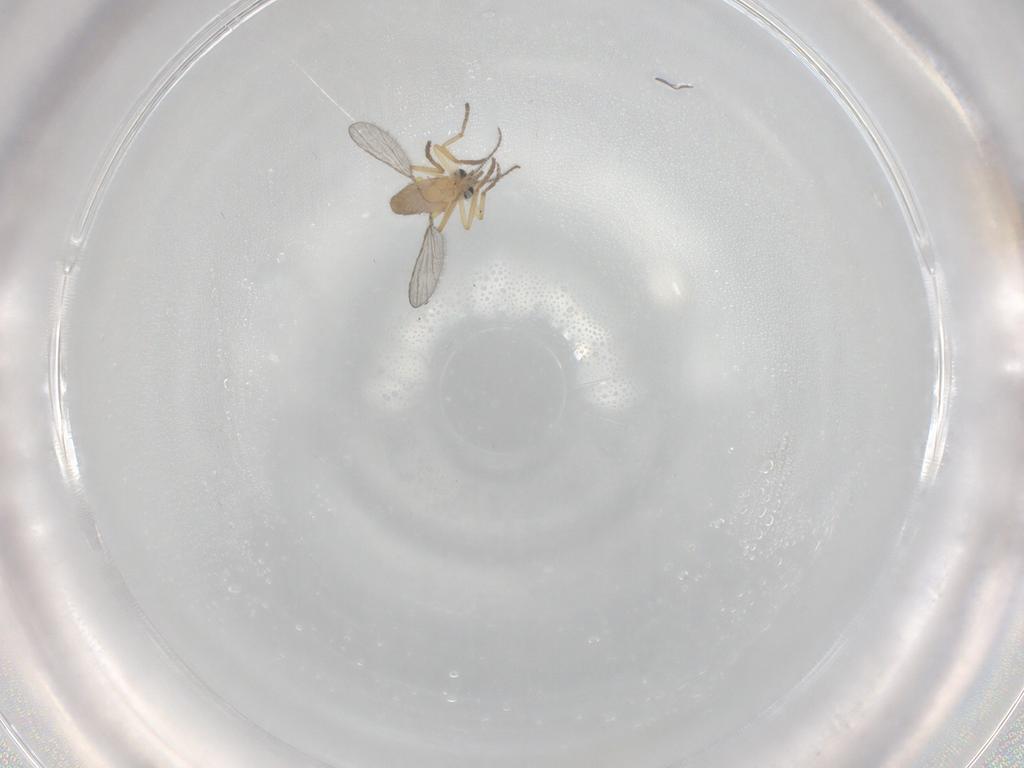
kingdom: Animalia
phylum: Arthropoda
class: Insecta
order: Diptera
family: Ceratopogonidae
